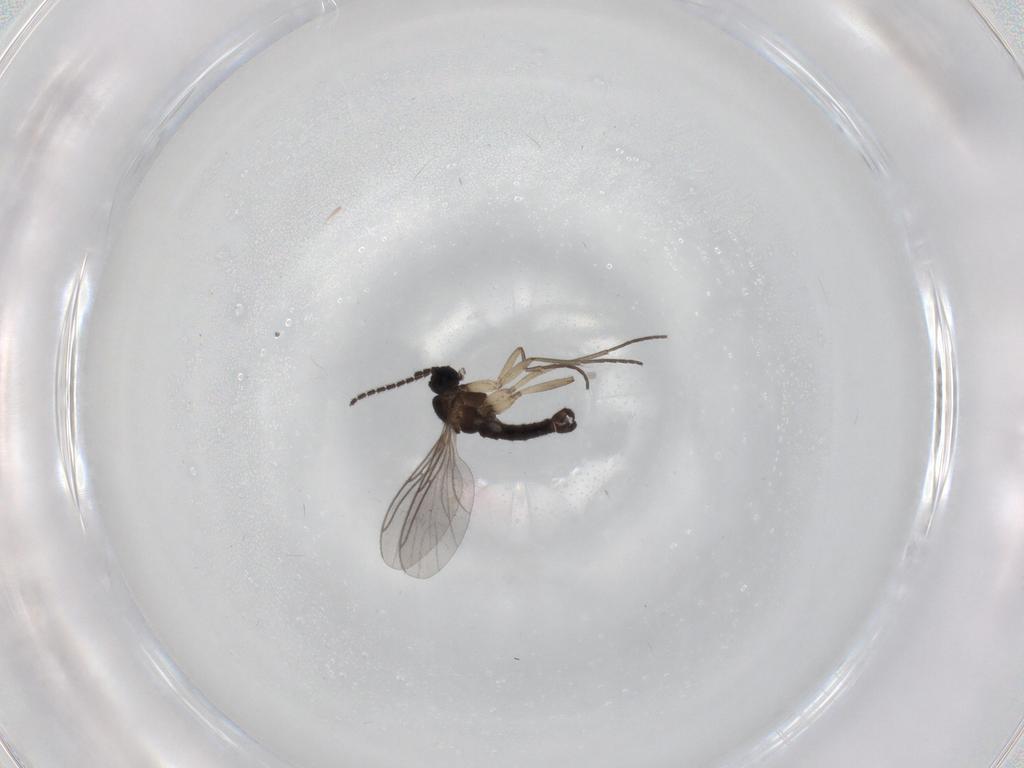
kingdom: Animalia
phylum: Arthropoda
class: Insecta
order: Diptera
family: Sciaridae
